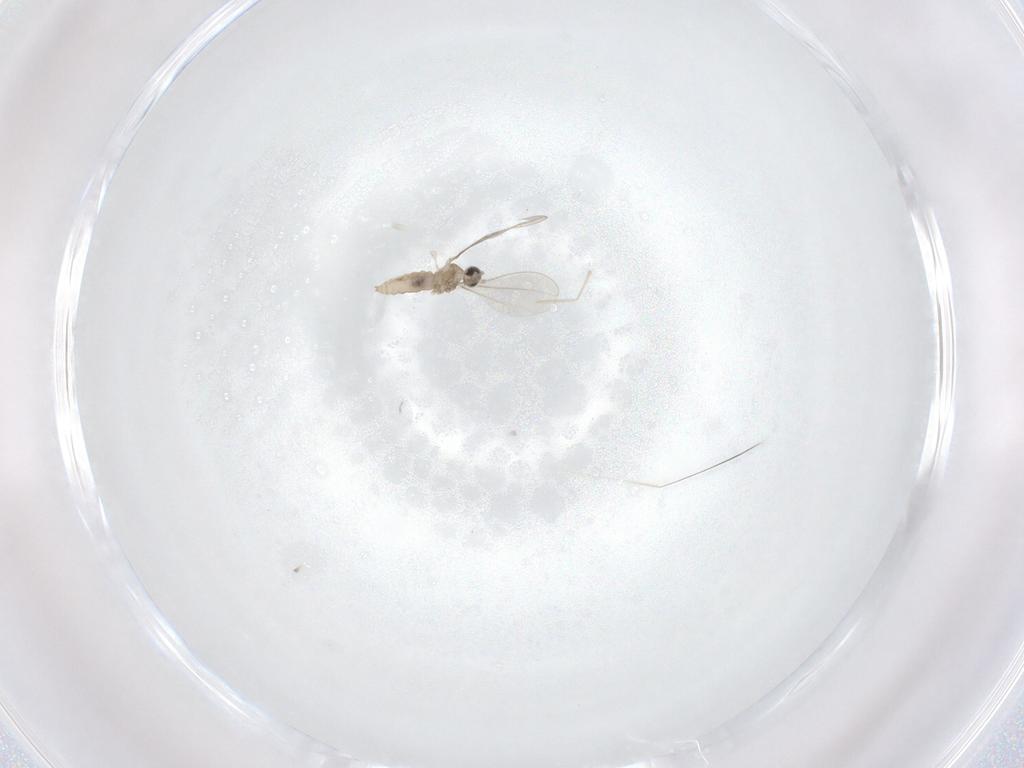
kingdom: Animalia
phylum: Arthropoda
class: Insecta
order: Diptera
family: Cecidomyiidae
